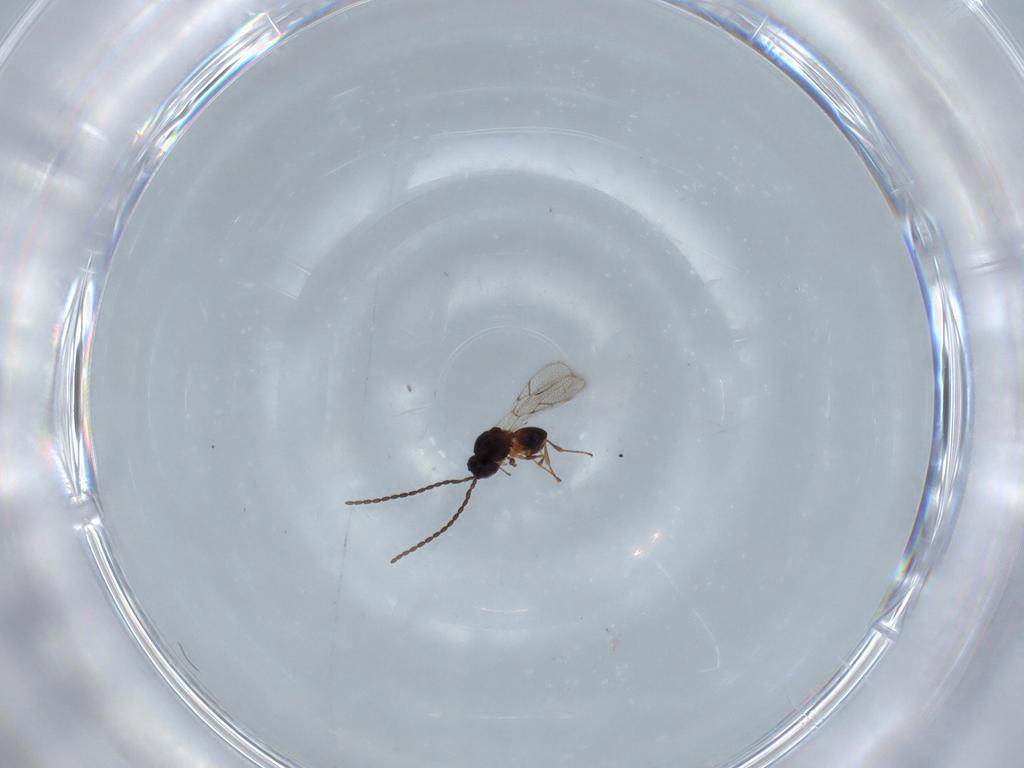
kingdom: Animalia
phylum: Arthropoda
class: Insecta
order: Hymenoptera
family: Figitidae
